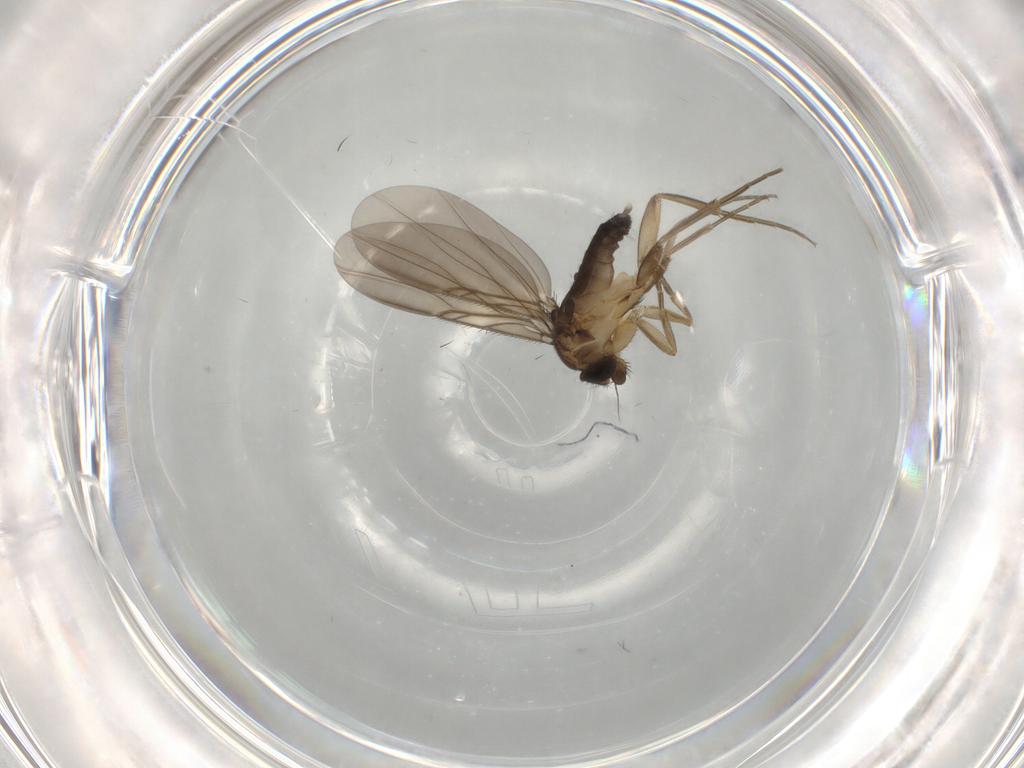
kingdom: Animalia
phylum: Arthropoda
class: Insecta
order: Diptera
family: Phoridae
